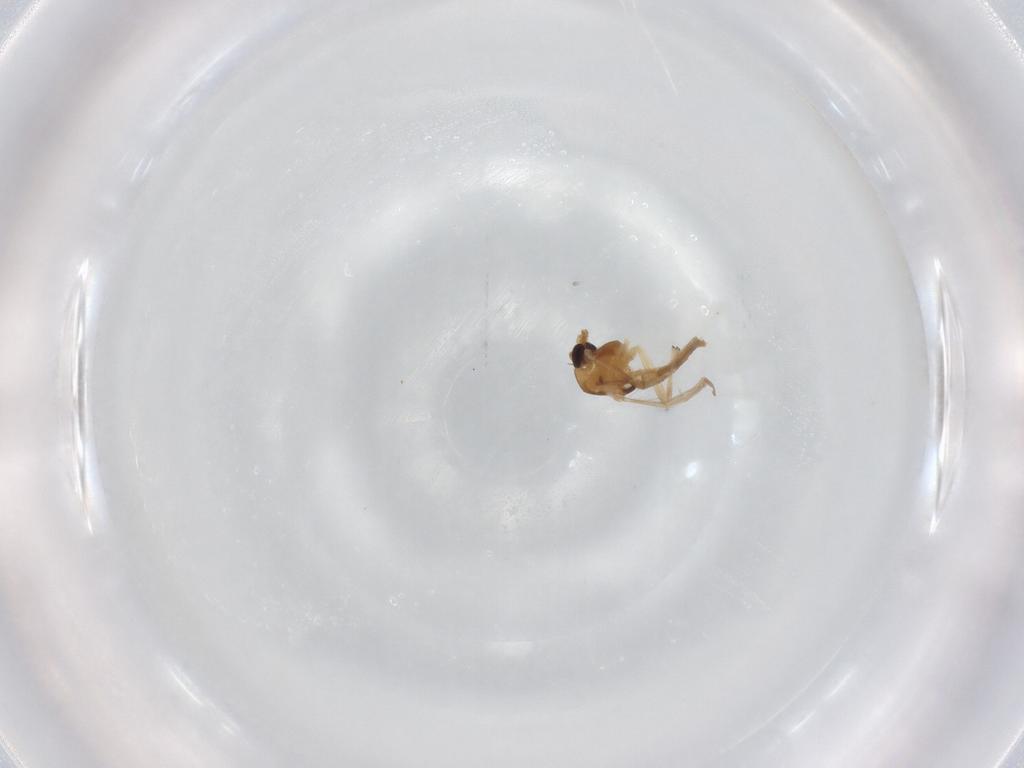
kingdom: Animalia
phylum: Arthropoda
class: Insecta
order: Diptera
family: Chironomidae
